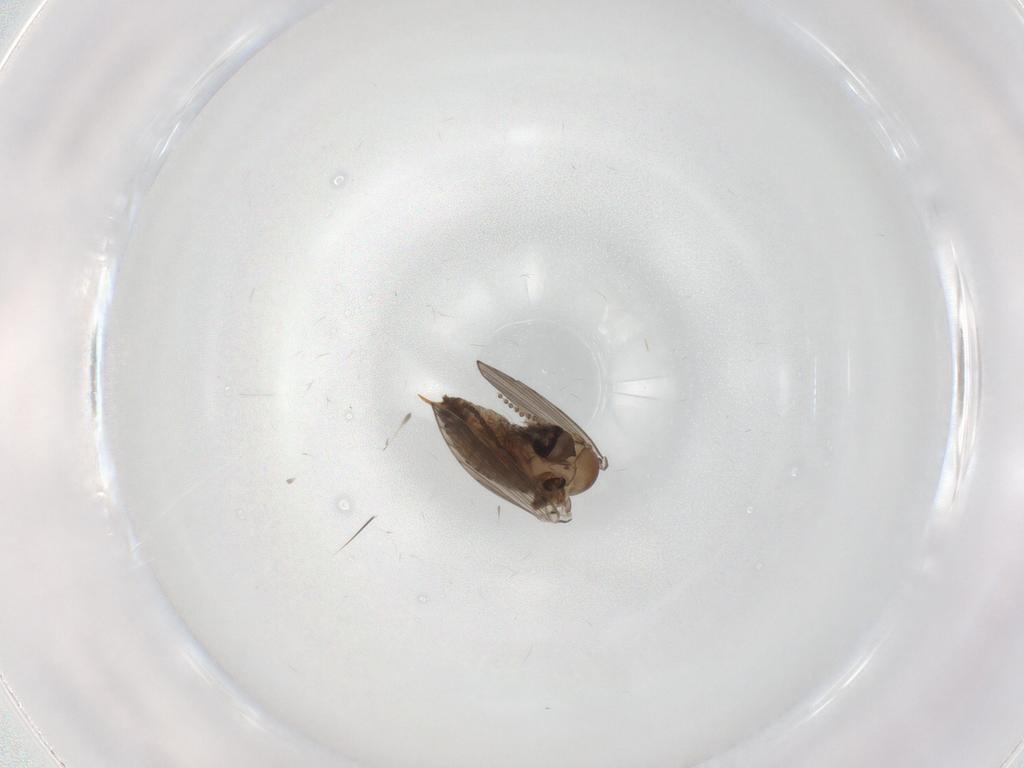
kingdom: Animalia
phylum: Arthropoda
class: Insecta
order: Diptera
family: Psychodidae
